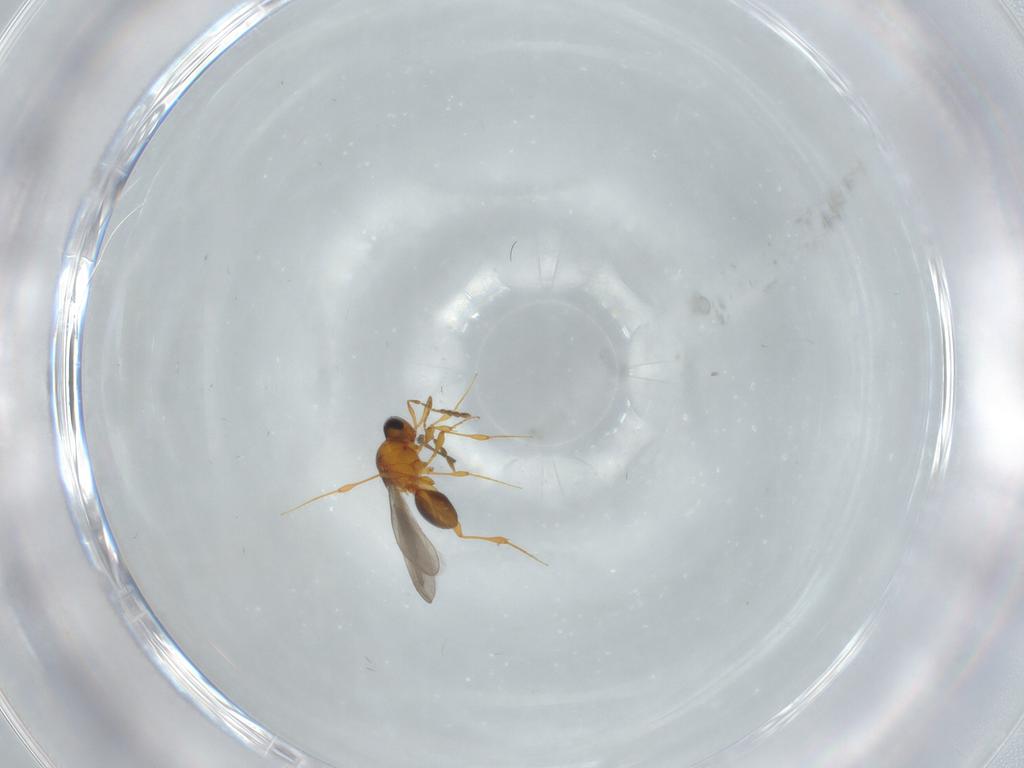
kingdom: Animalia
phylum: Arthropoda
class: Insecta
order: Hymenoptera
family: Platygastridae
